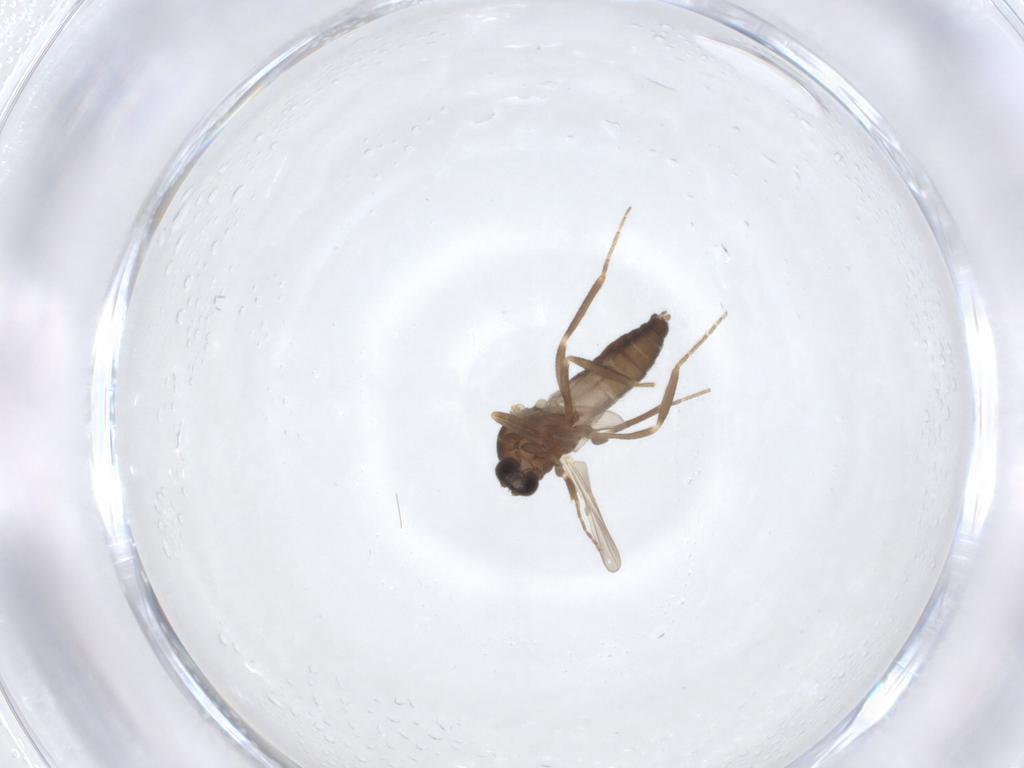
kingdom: Animalia
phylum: Arthropoda
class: Insecta
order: Diptera
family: Ceratopogonidae
